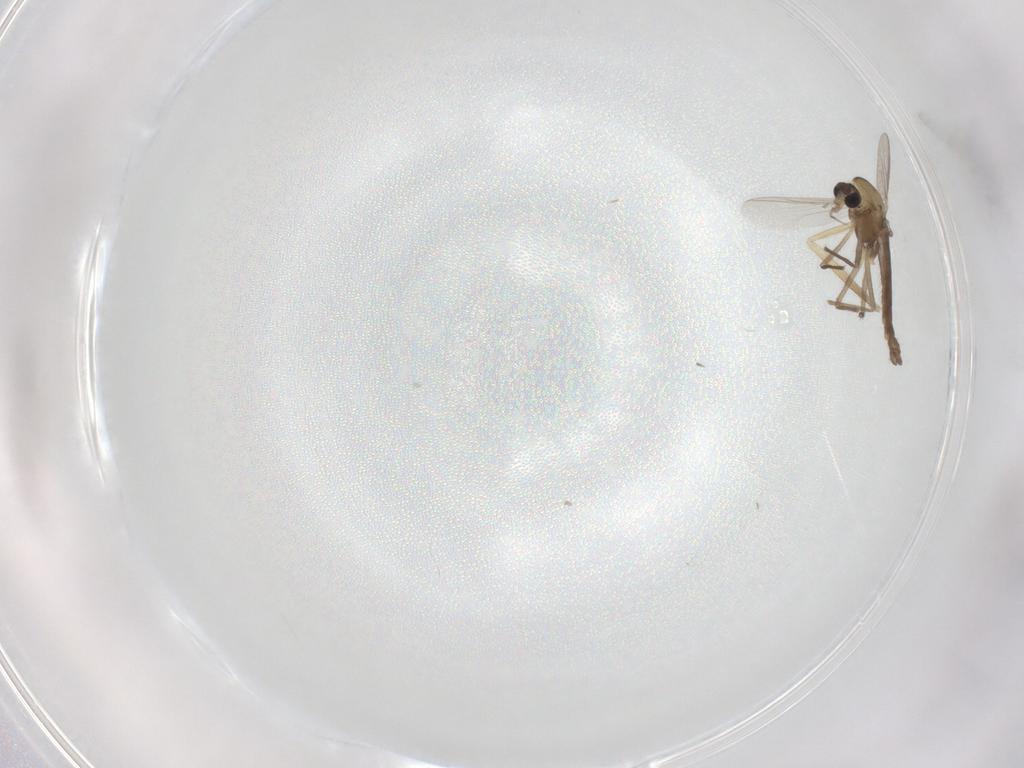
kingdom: Animalia
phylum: Arthropoda
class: Insecta
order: Diptera
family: Chironomidae
